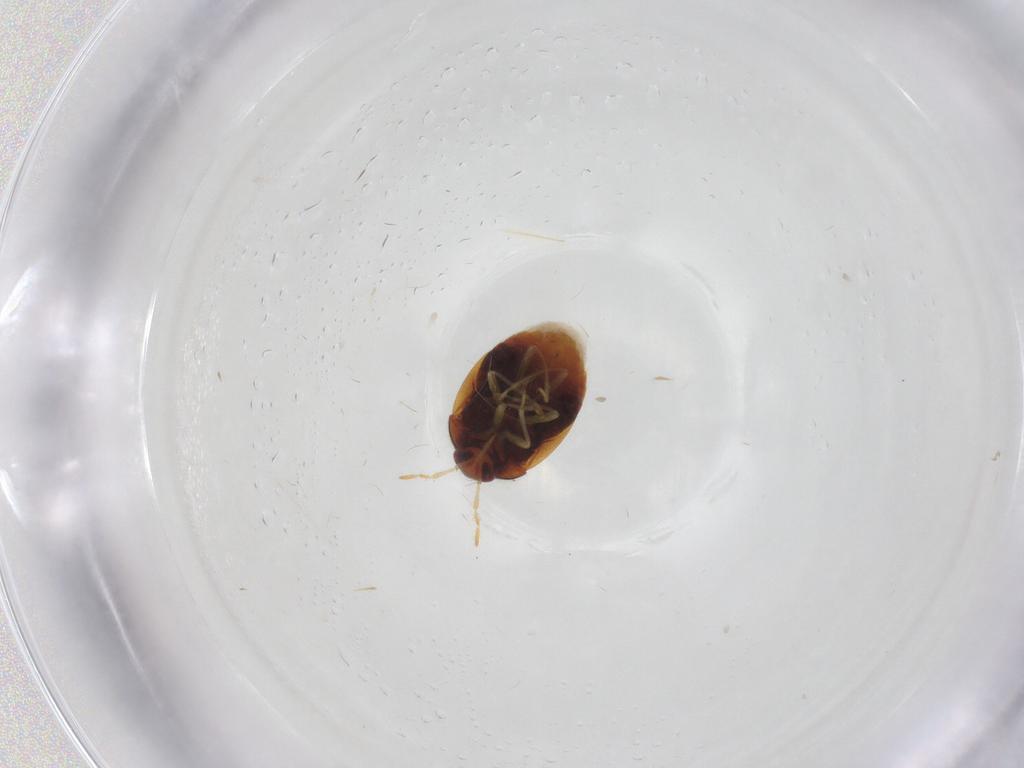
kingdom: Animalia
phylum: Arthropoda
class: Insecta
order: Hemiptera
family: Anthocoridae
